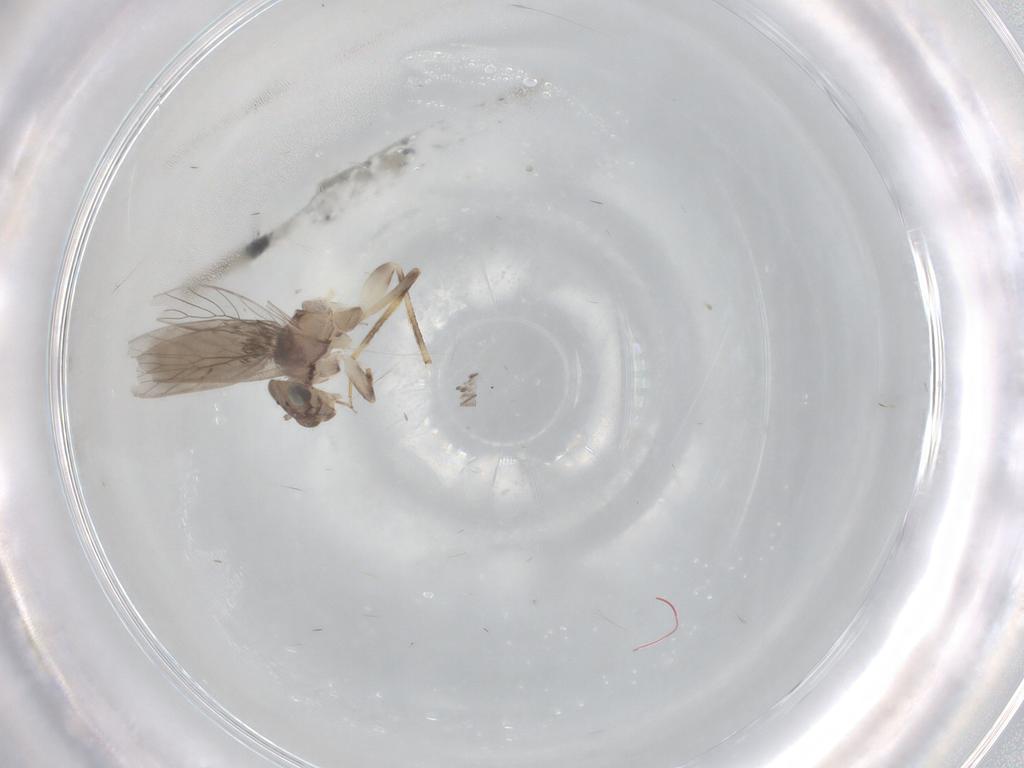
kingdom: Animalia
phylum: Arthropoda
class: Insecta
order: Psocodea
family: Lepidopsocidae
